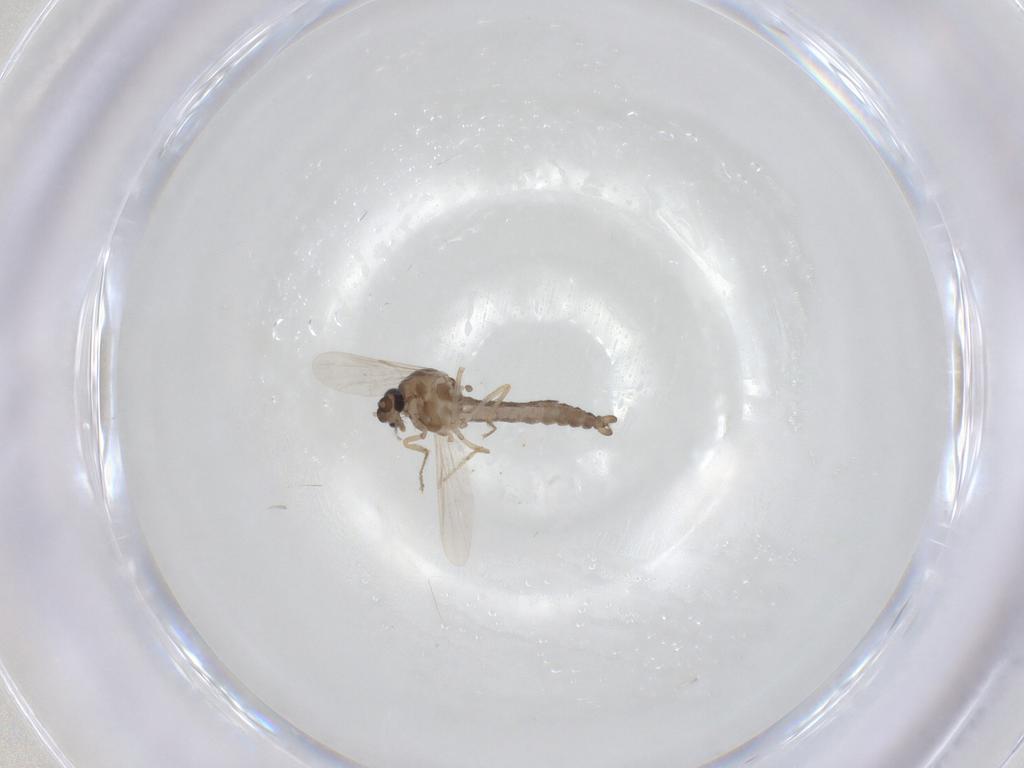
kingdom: Animalia
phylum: Arthropoda
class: Insecta
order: Diptera
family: Ceratopogonidae
